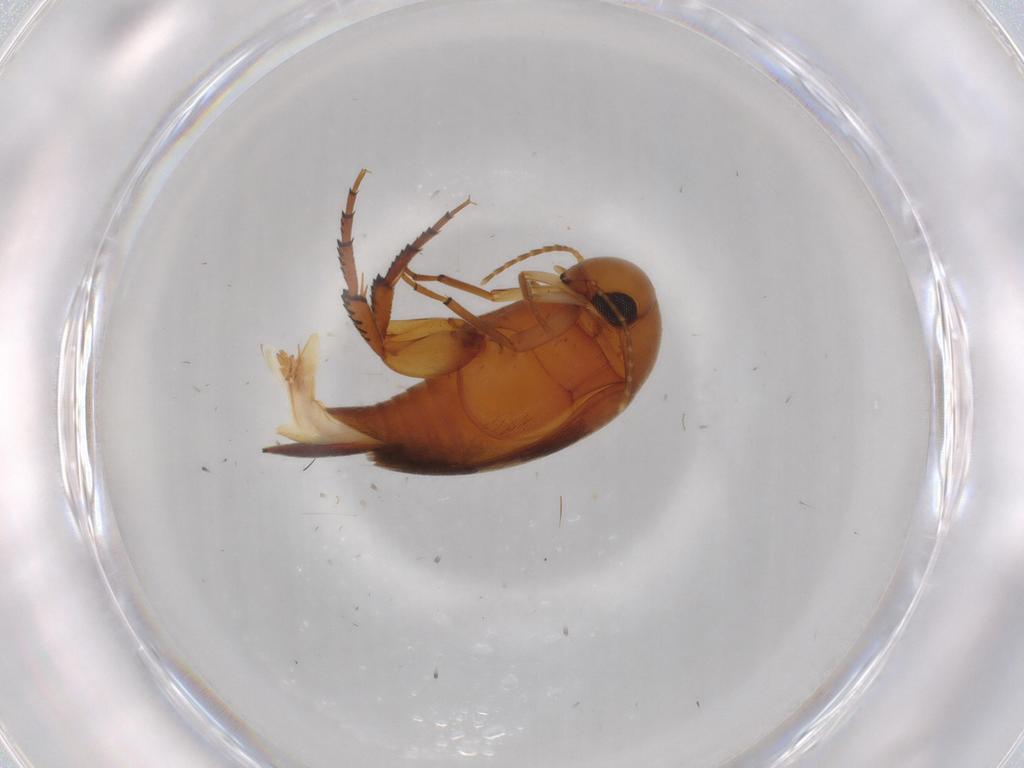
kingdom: Animalia
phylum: Arthropoda
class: Insecta
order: Coleoptera
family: Mordellidae
